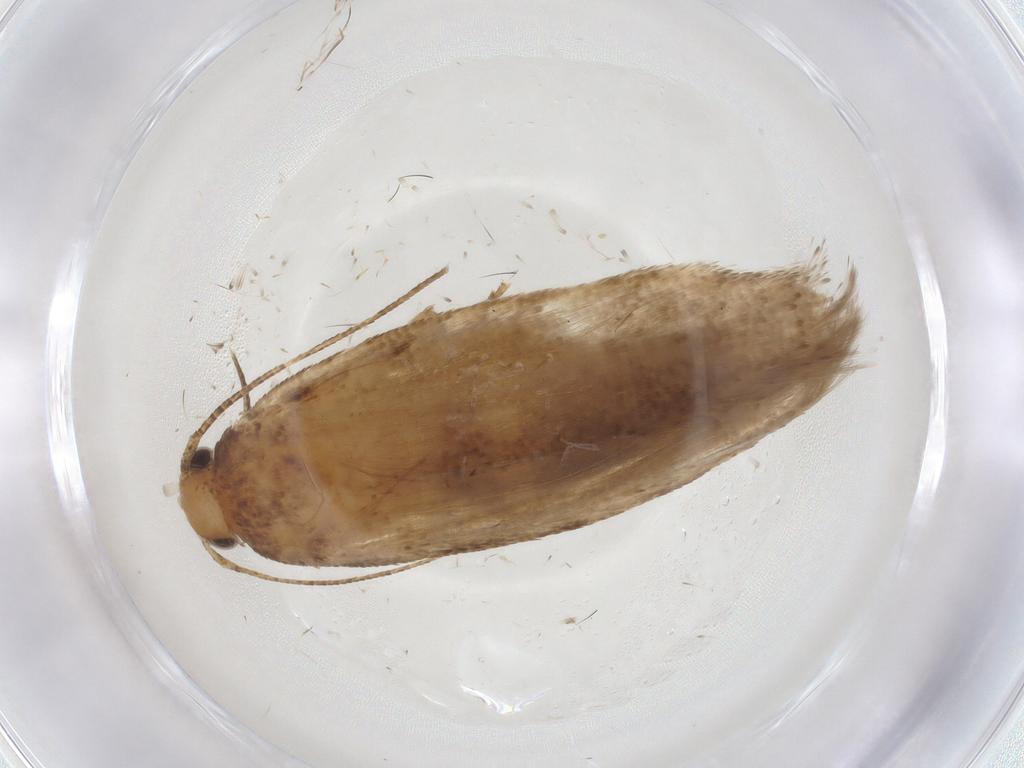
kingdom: Animalia
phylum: Arthropoda
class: Insecta
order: Lepidoptera
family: Gelechiidae
